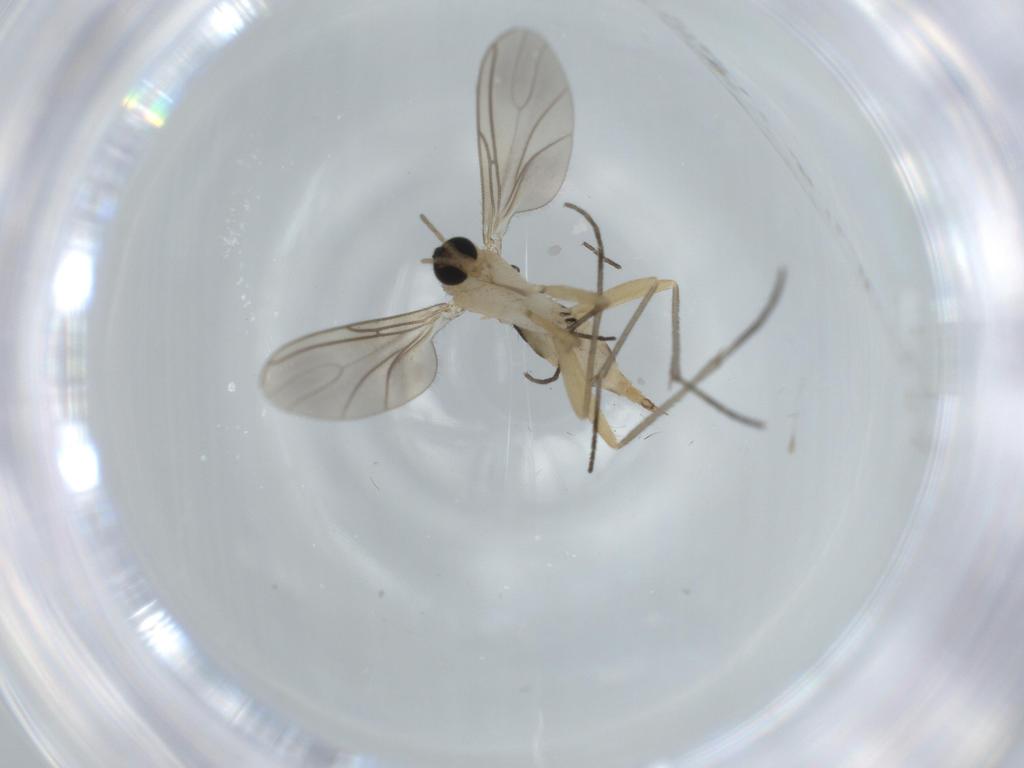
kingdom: Animalia
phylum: Arthropoda
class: Insecta
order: Diptera
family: Sciaridae
